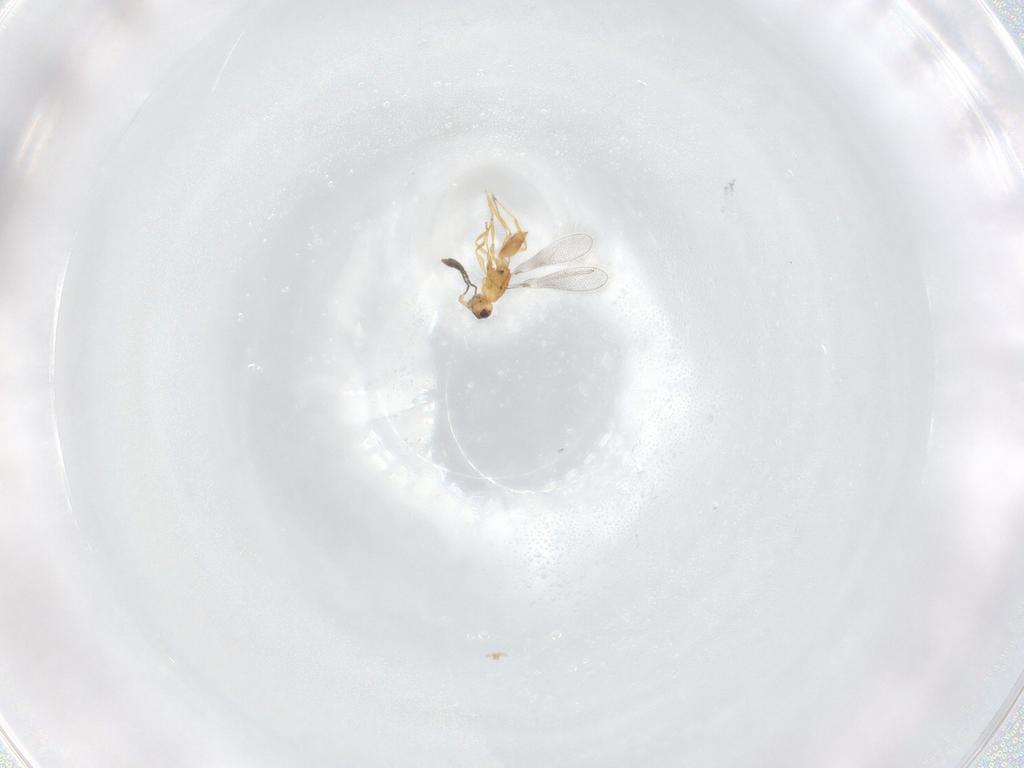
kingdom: Animalia
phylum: Arthropoda
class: Insecta
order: Hymenoptera
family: Mymaridae
